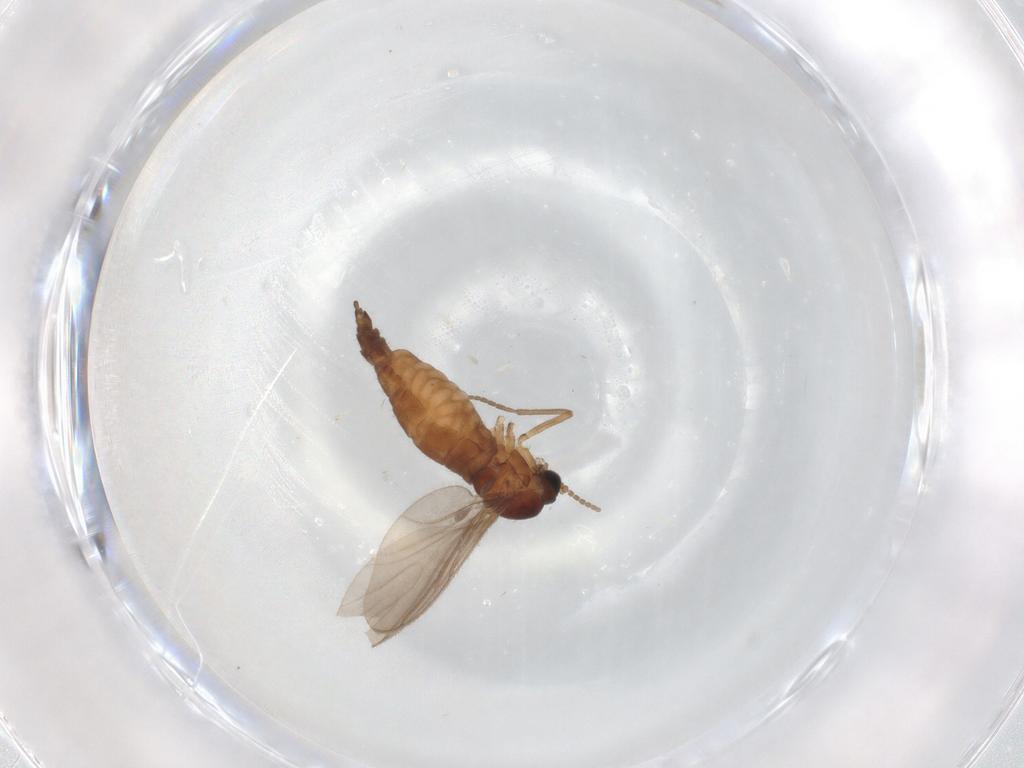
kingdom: Animalia
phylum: Arthropoda
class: Insecta
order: Diptera
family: Sciaridae
